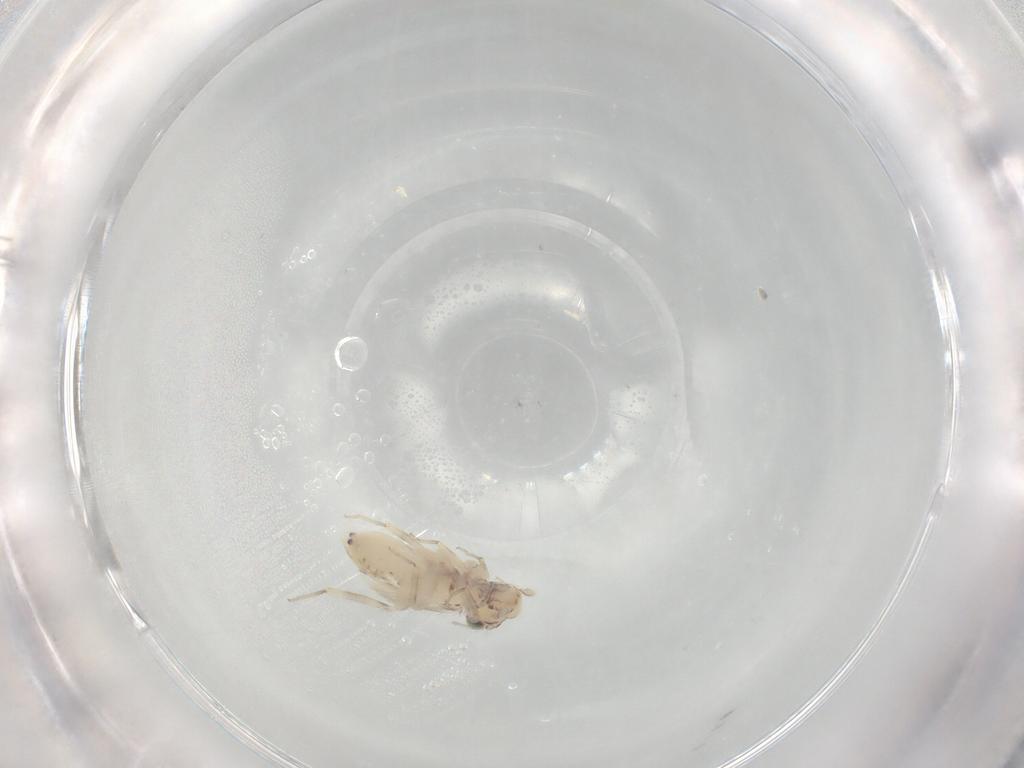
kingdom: Animalia
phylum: Arthropoda
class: Insecta
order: Psocodea
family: Lepidopsocidae
